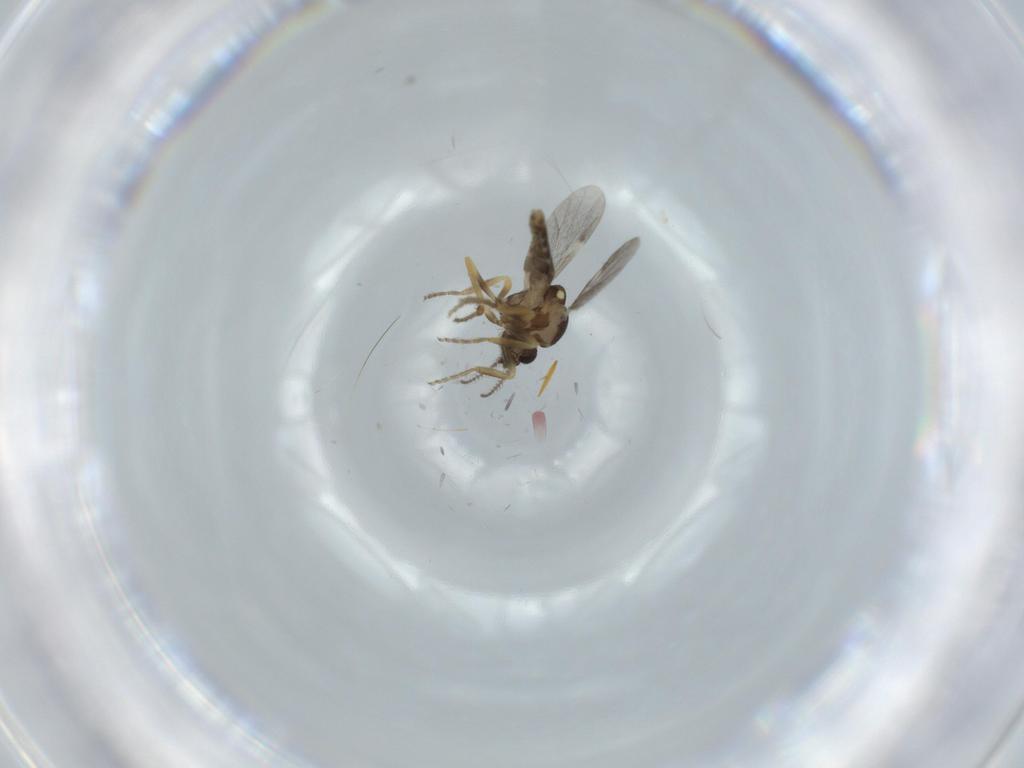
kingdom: Animalia
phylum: Arthropoda
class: Insecta
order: Diptera
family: Ceratopogonidae
